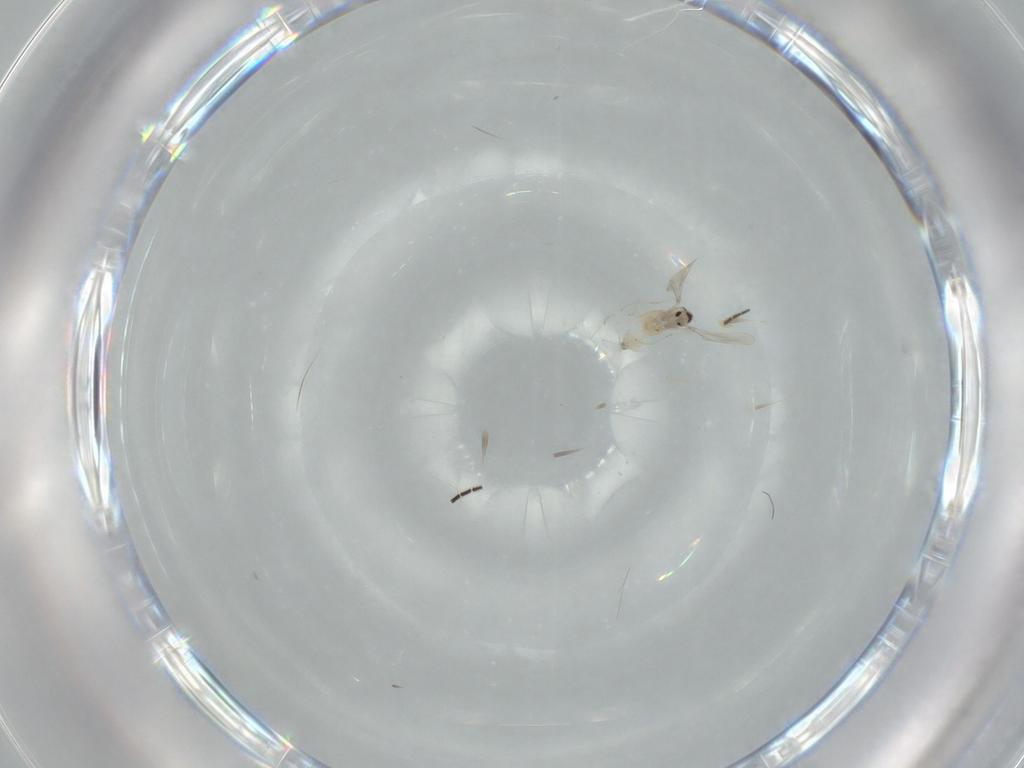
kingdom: Animalia
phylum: Arthropoda
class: Insecta
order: Diptera
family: Cecidomyiidae
